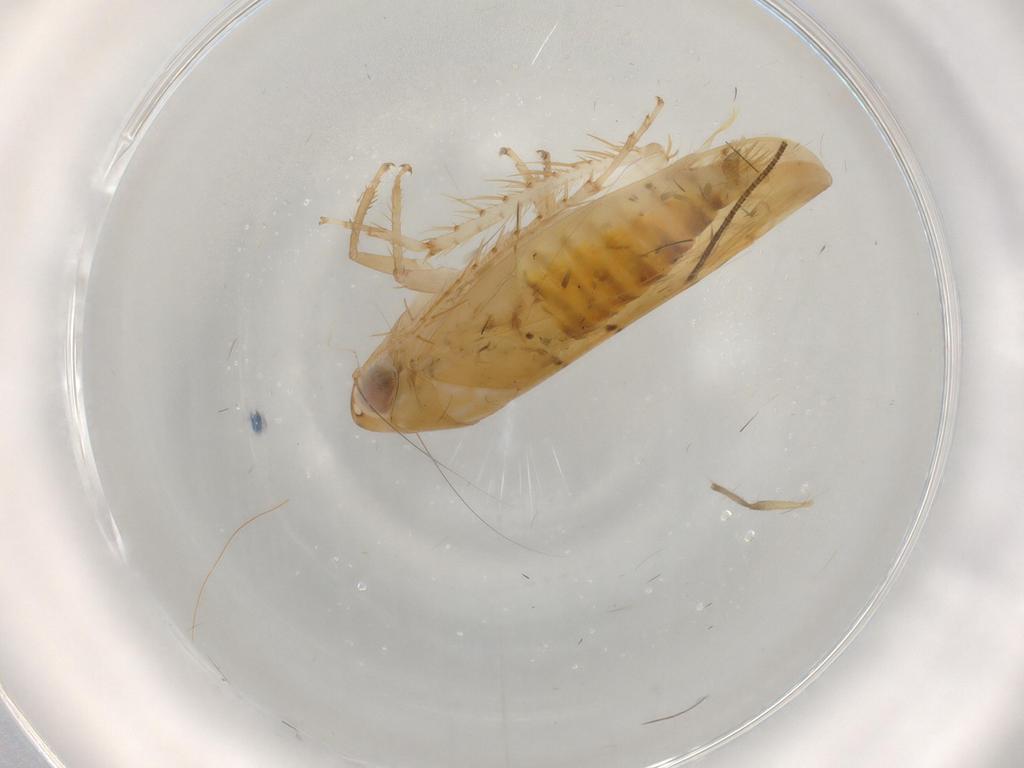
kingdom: Animalia
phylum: Arthropoda
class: Insecta
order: Hemiptera
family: Cicadellidae
